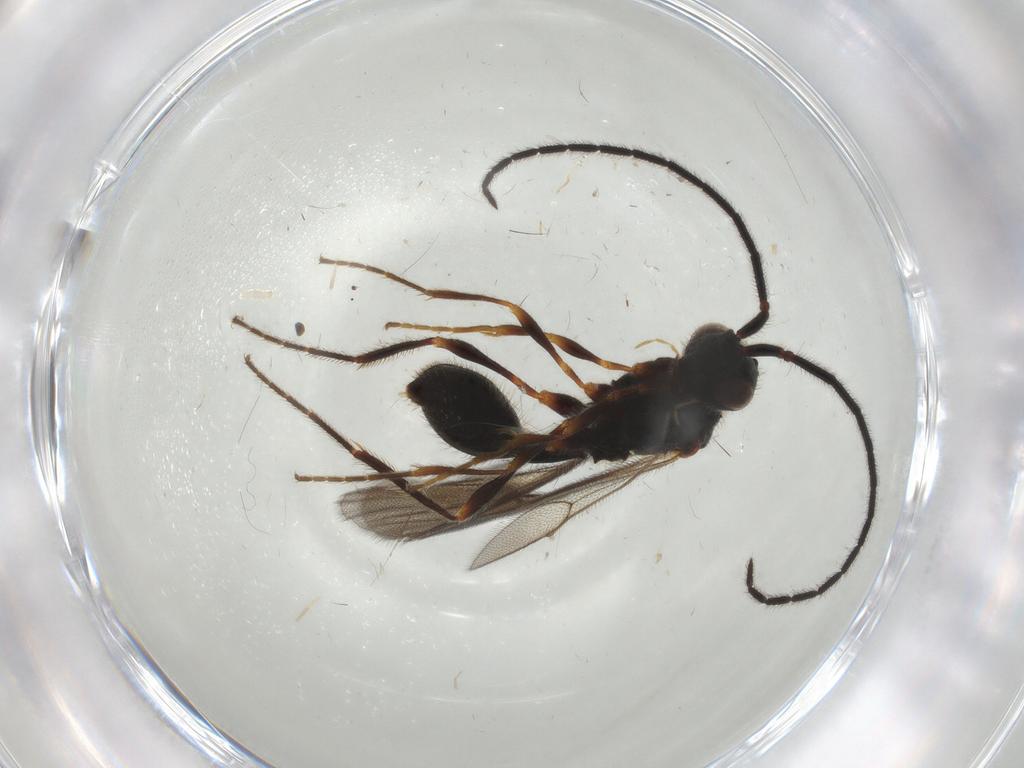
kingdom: Animalia
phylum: Arthropoda
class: Insecta
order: Hymenoptera
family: Diapriidae
